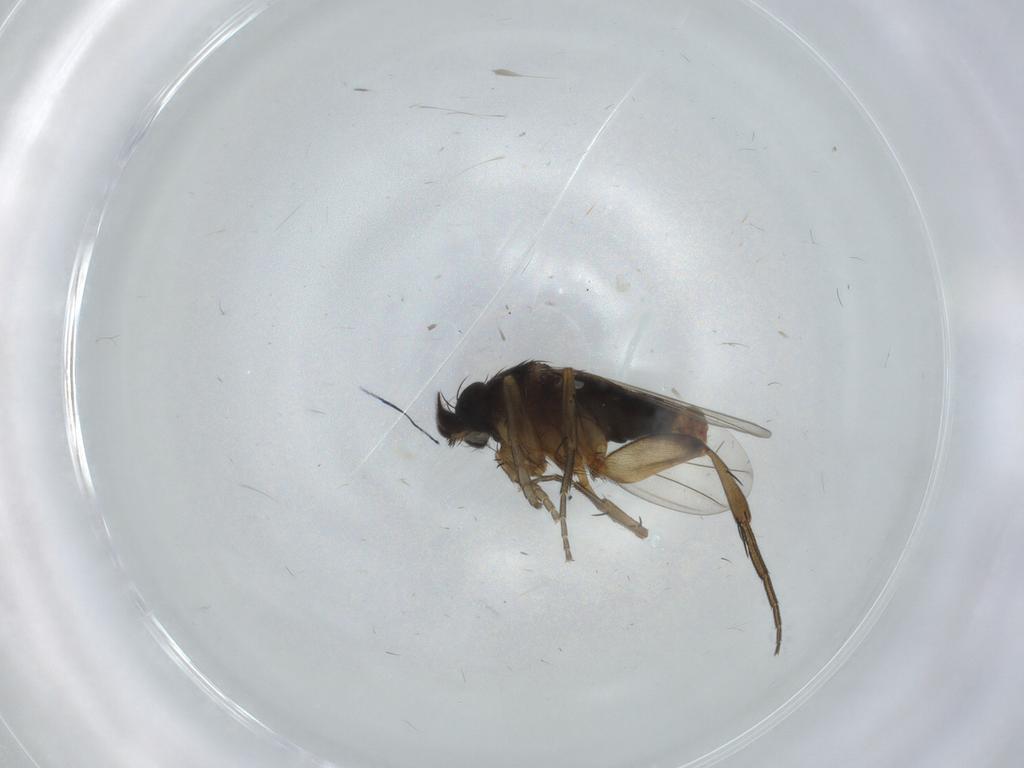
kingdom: Animalia
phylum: Arthropoda
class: Insecta
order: Diptera
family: Phoridae
